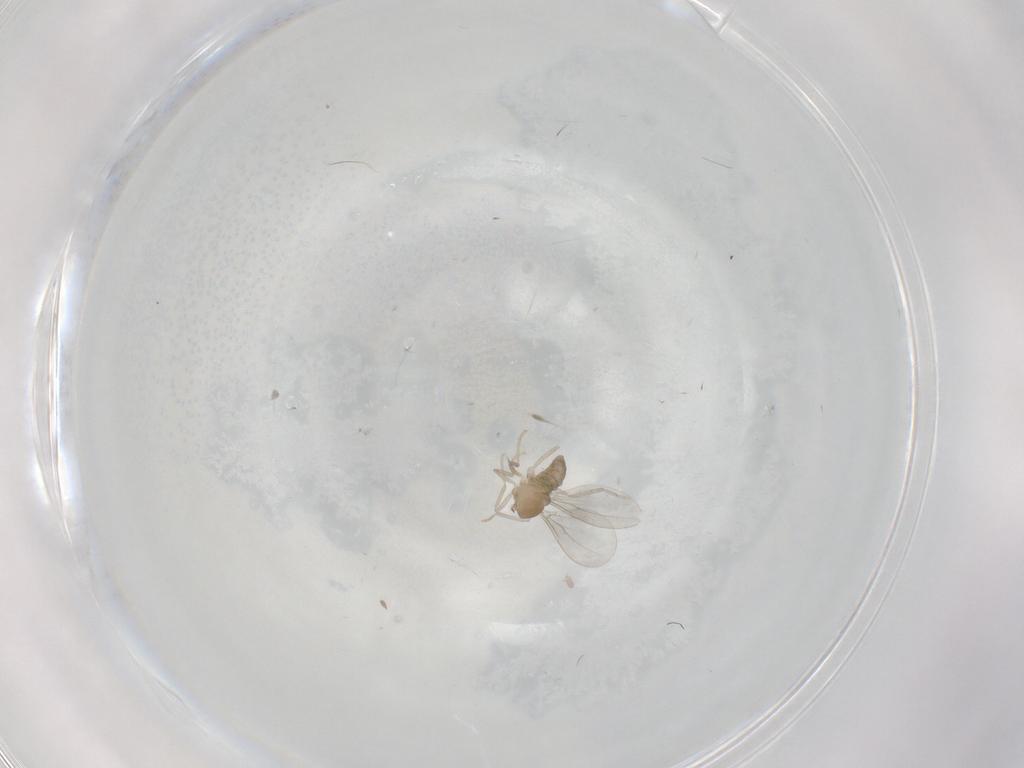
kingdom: Animalia
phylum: Arthropoda
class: Insecta
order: Diptera
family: Cecidomyiidae
